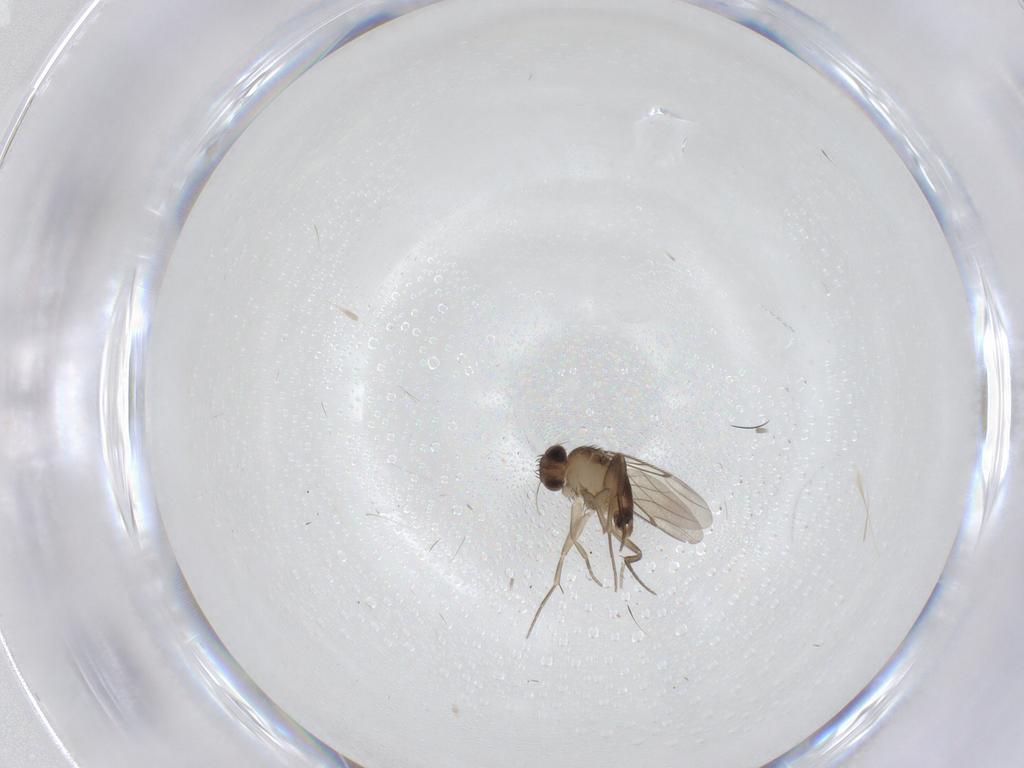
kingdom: Animalia
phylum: Arthropoda
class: Insecta
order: Diptera
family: Phoridae
